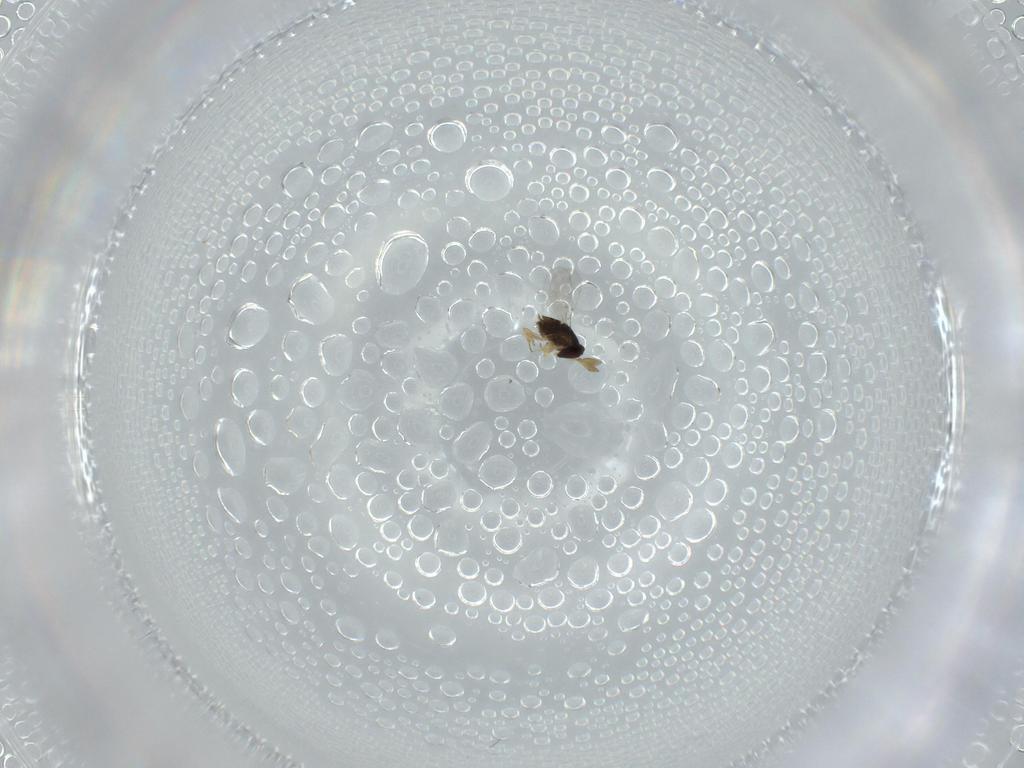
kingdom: Animalia
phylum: Arthropoda
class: Insecta
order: Hymenoptera
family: Encyrtidae
